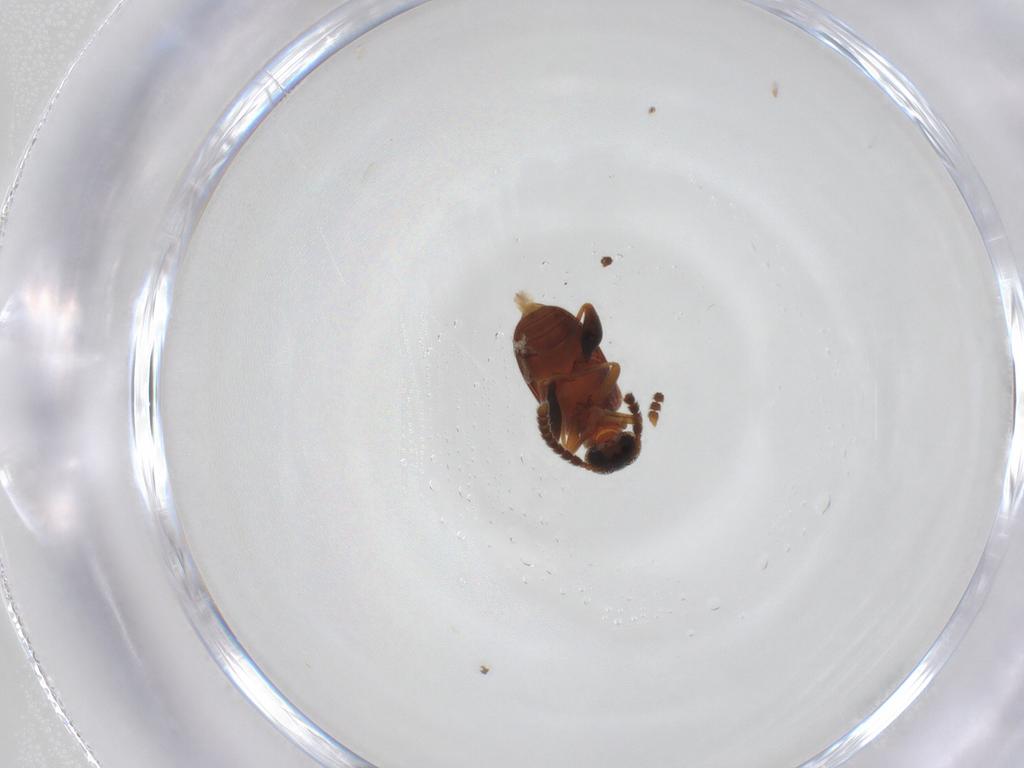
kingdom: Animalia
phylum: Arthropoda
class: Insecta
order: Coleoptera
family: Aderidae
